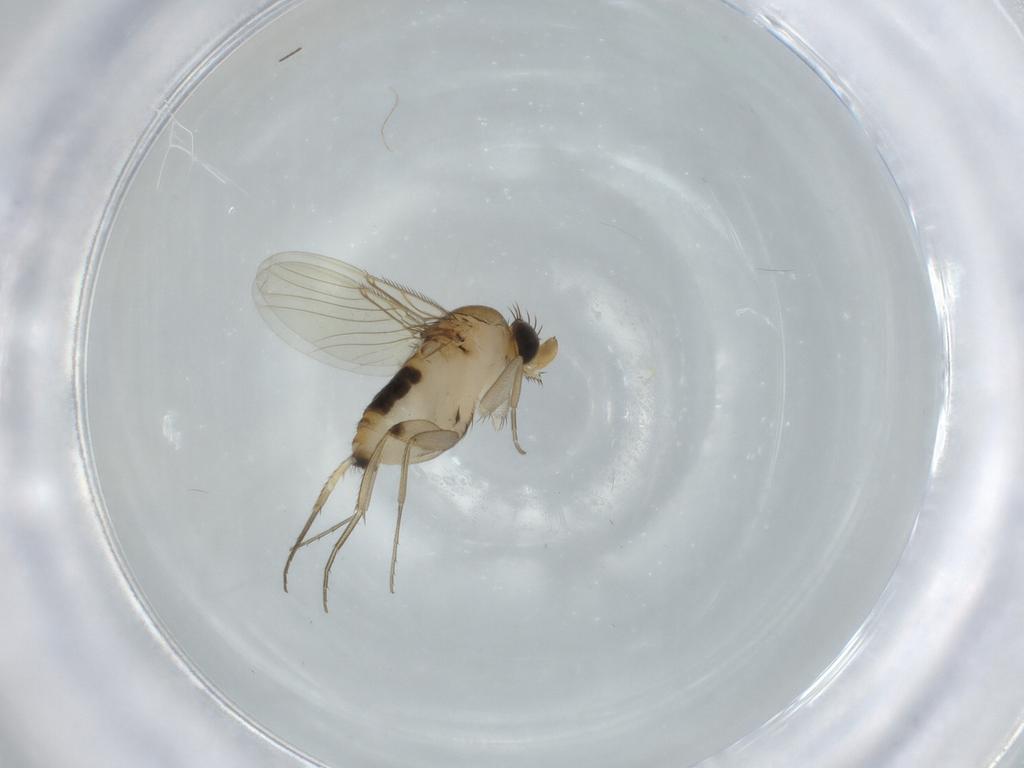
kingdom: Animalia
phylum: Arthropoda
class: Insecta
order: Diptera
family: Phoridae
